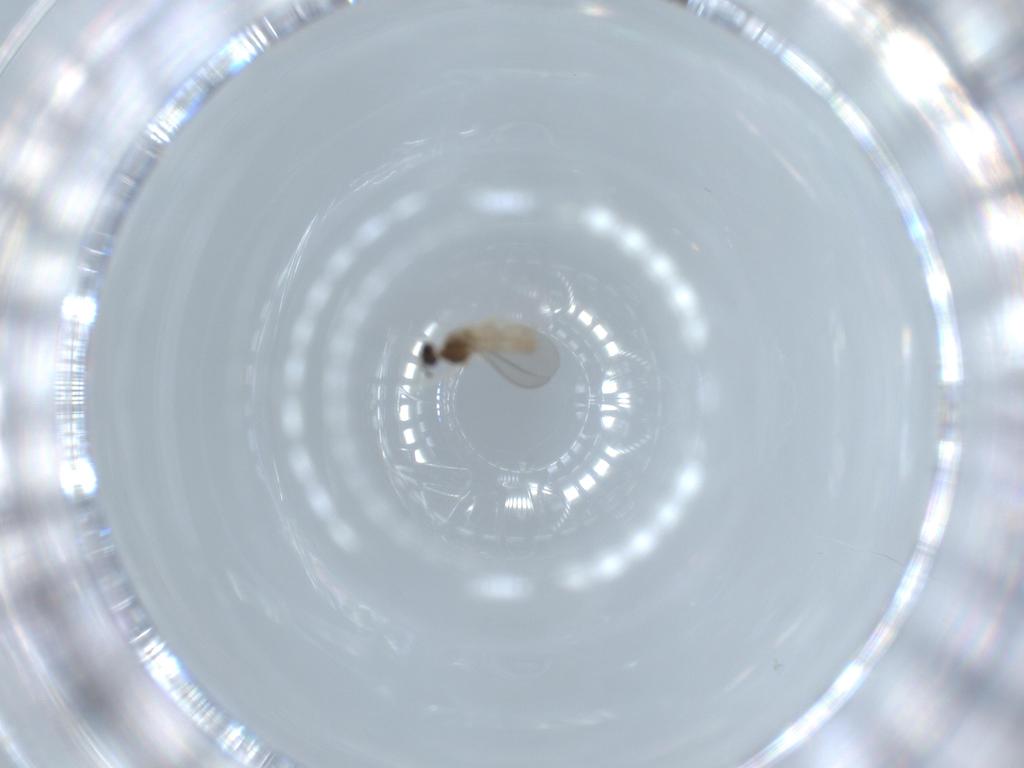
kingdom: Animalia
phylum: Arthropoda
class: Insecta
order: Diptera
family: Cecidomyiidae
